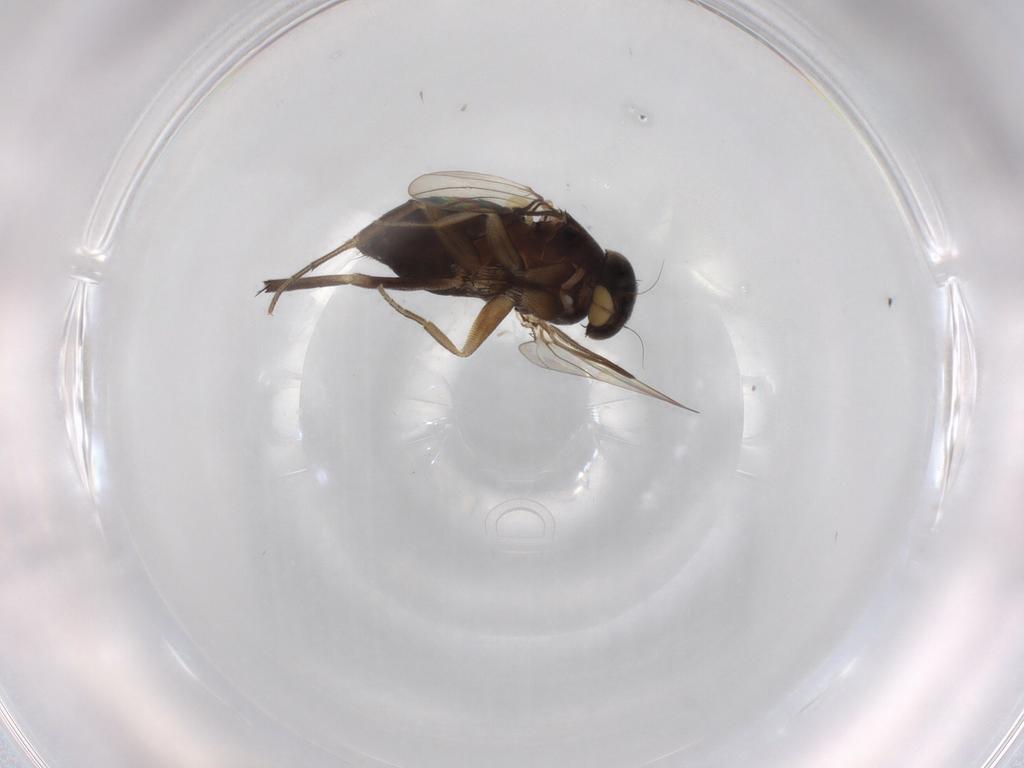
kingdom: Animalia
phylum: Arthropoda
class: Insecta
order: Diptera
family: Phoridae
